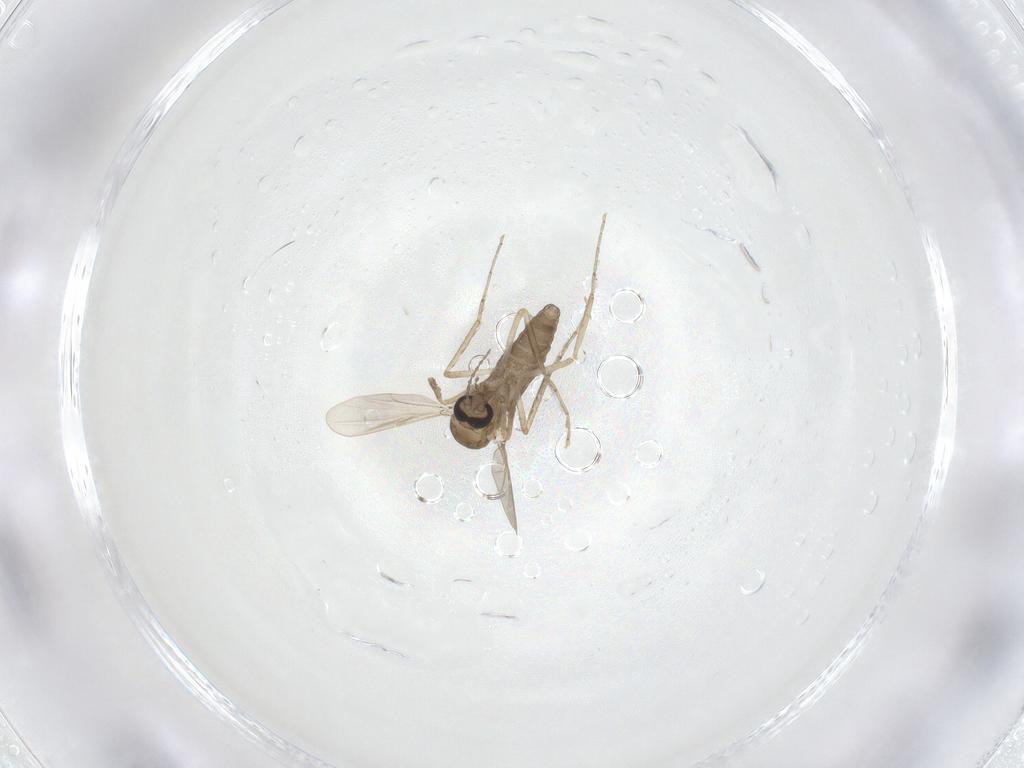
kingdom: Animalia
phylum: Arthropoda
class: Insecta
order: Diptera
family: Ceratopogonidae
